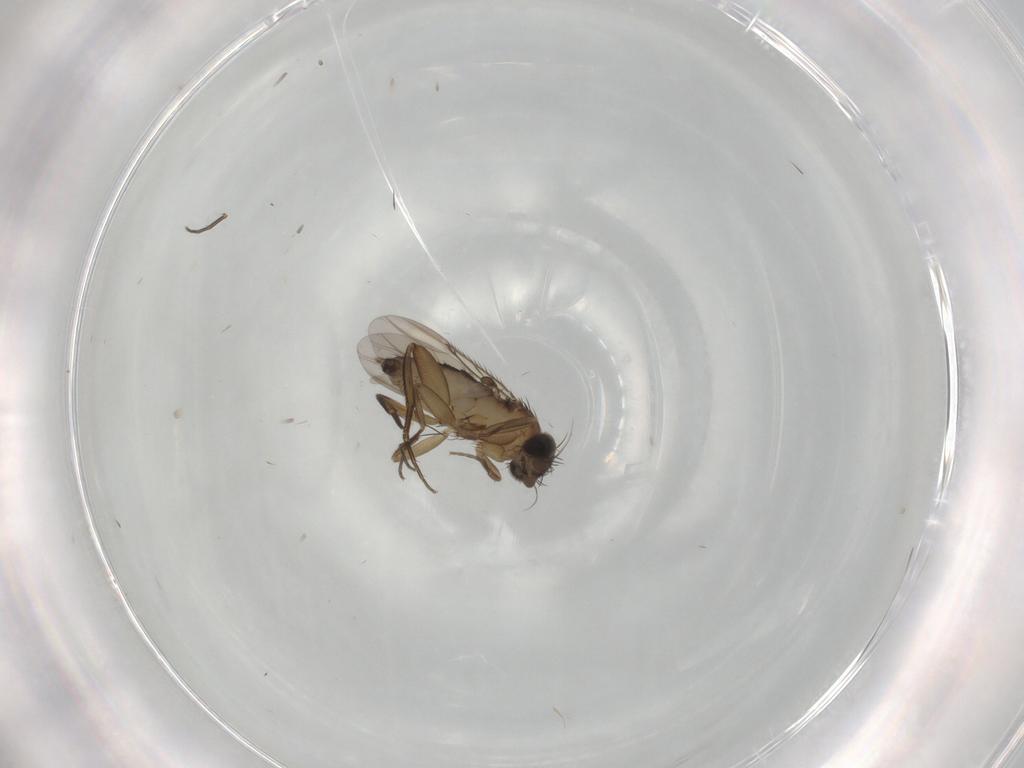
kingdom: Animalia
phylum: Arthropoda
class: Insecta
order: Diptera
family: Phoridae
